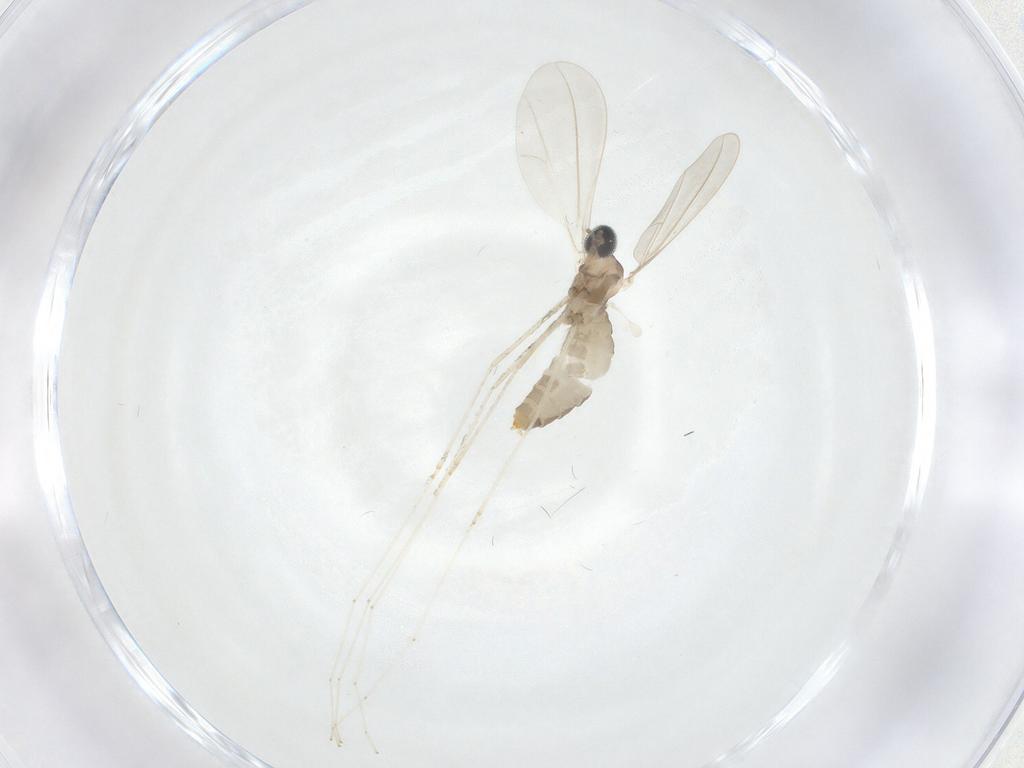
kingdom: Animalia
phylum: Arthropoda
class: Insecta
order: Diptera
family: Cecidomyiidae
